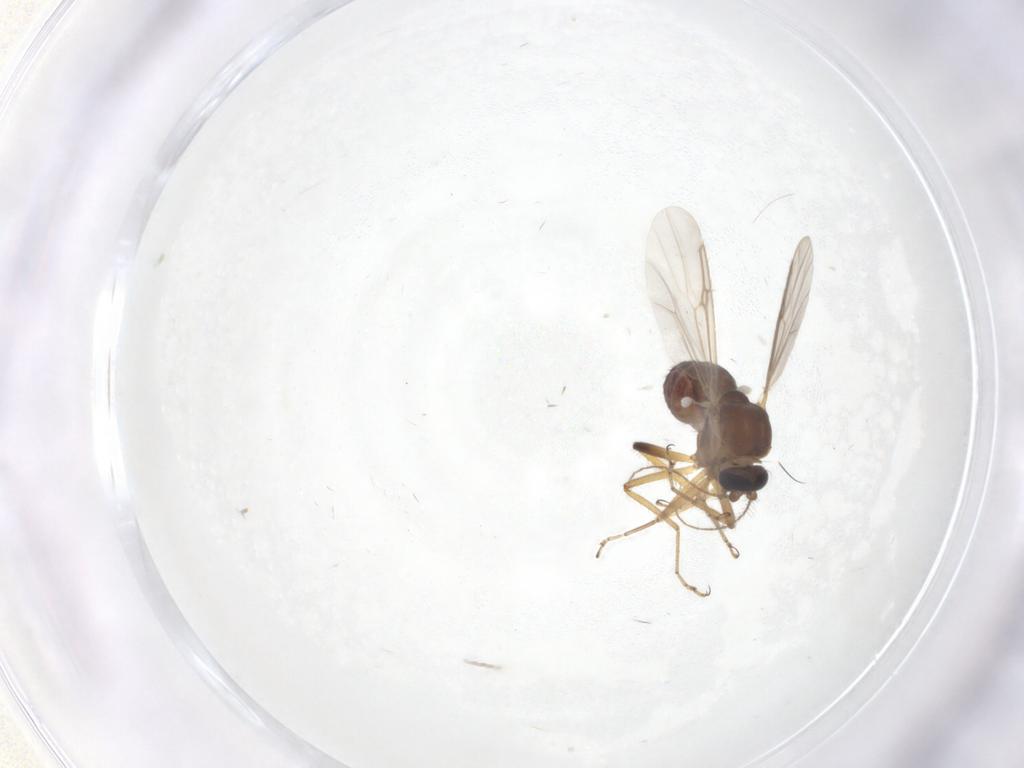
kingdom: Animalia
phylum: Arthropoda
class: Insecta
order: Diptera
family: Ceratopogonidae
